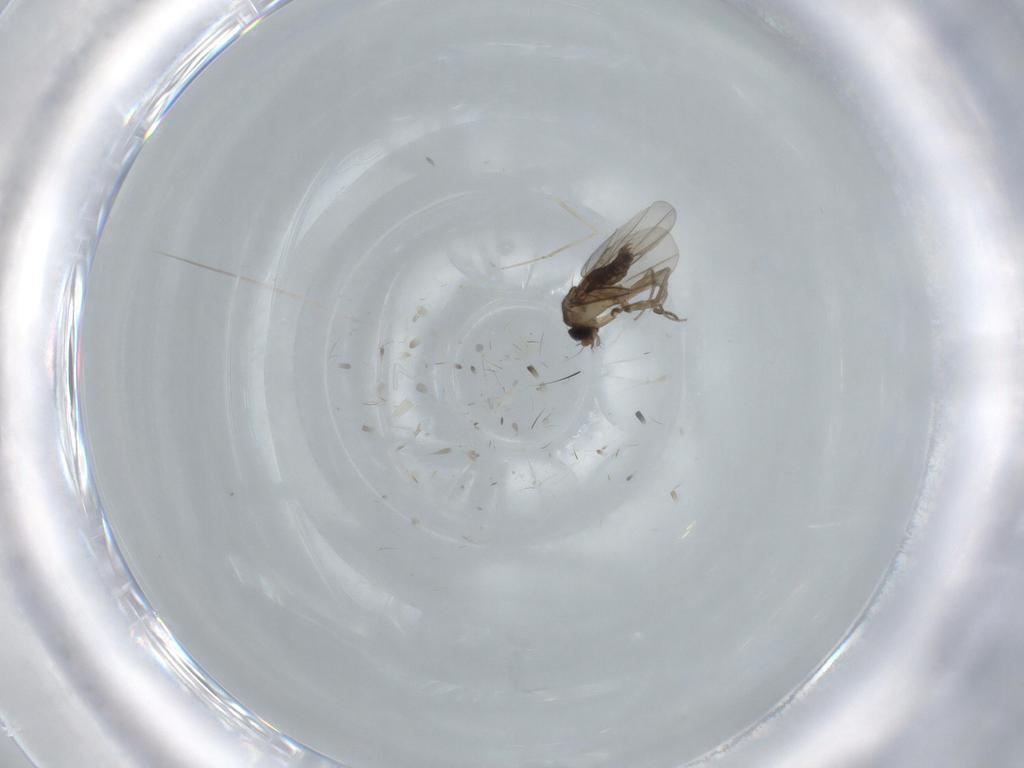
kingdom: Animalia
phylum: Arthropoda
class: Insecta
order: Diptera
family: Phoridae
